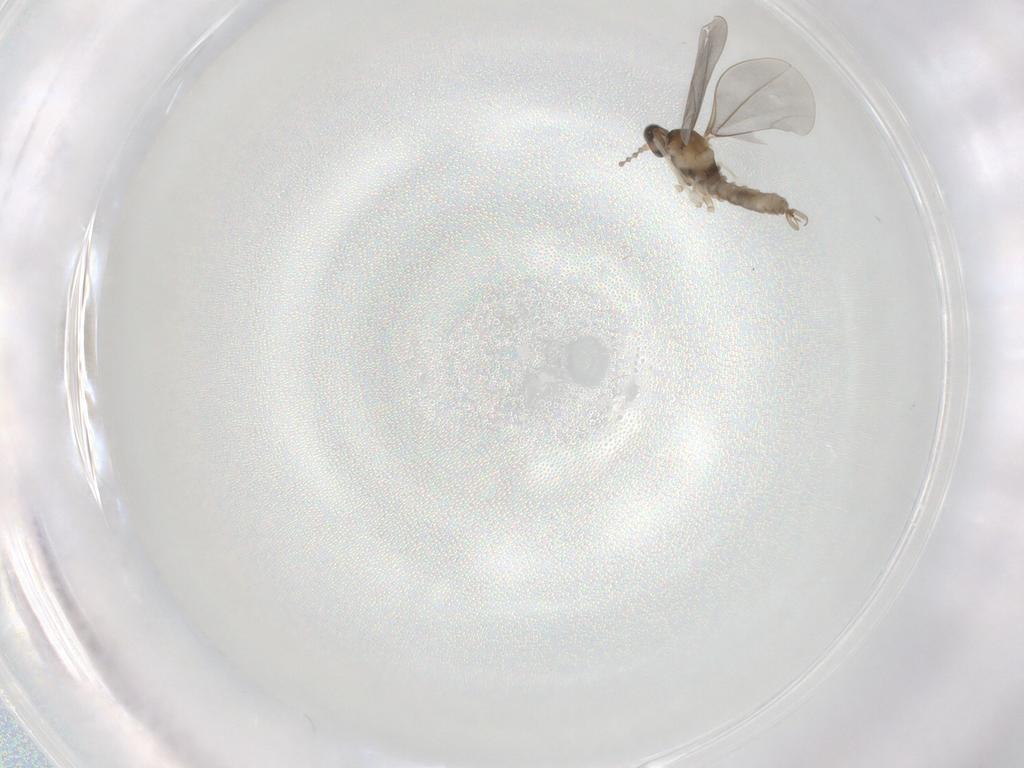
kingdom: Animalia
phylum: Arthropoda
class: Insecta
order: Diptera
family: Cecidomyiidae
